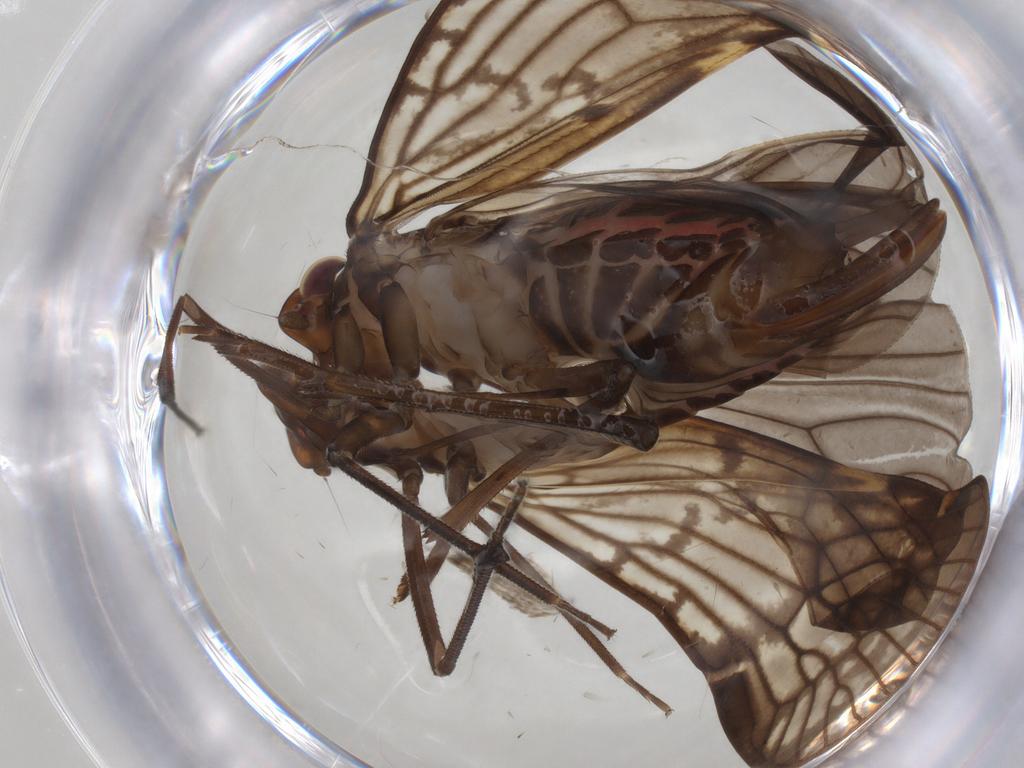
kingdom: Animalia
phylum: Arthropoda
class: Insecta
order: Hemiptera
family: Cixiidae
